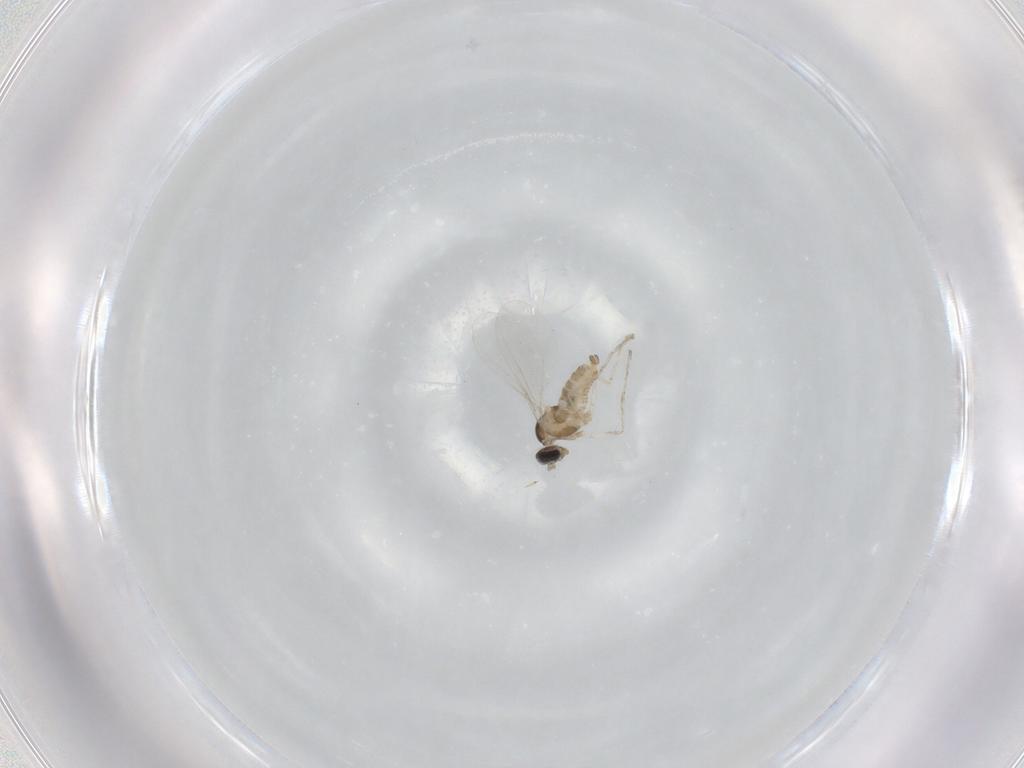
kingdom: Animalia
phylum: Arthropoda
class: Insecta
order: Diptera
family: Cecidomyiidae
